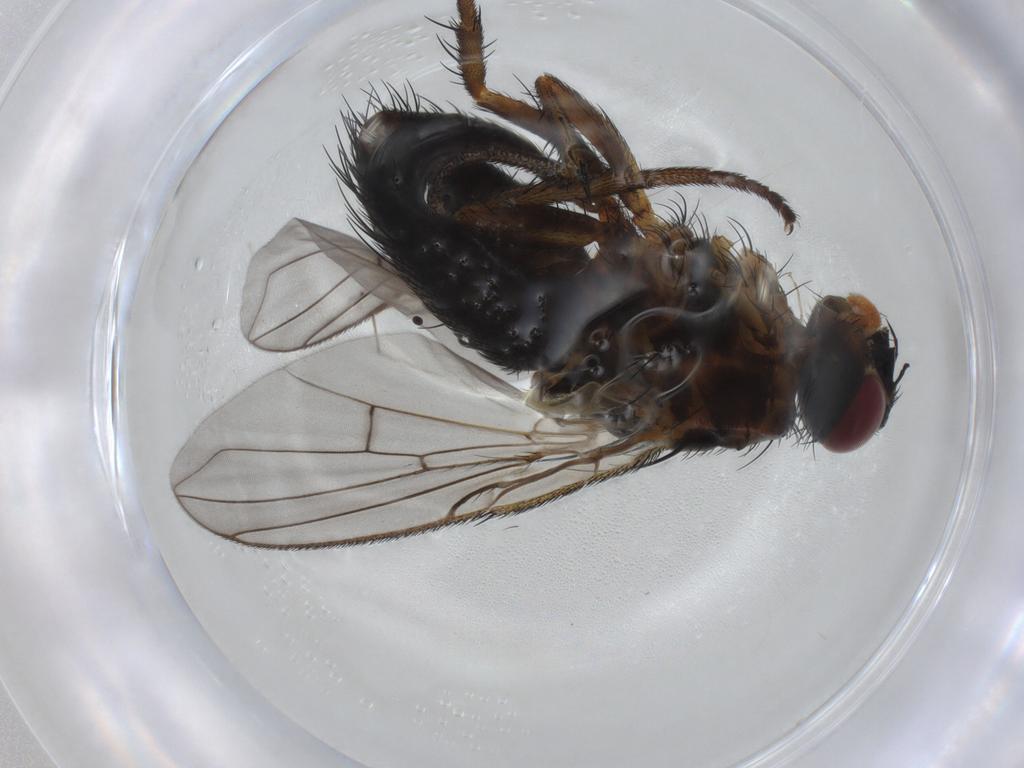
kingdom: Animalia
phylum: Arthropoda
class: Insecta
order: Diptera
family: Tachinidae
